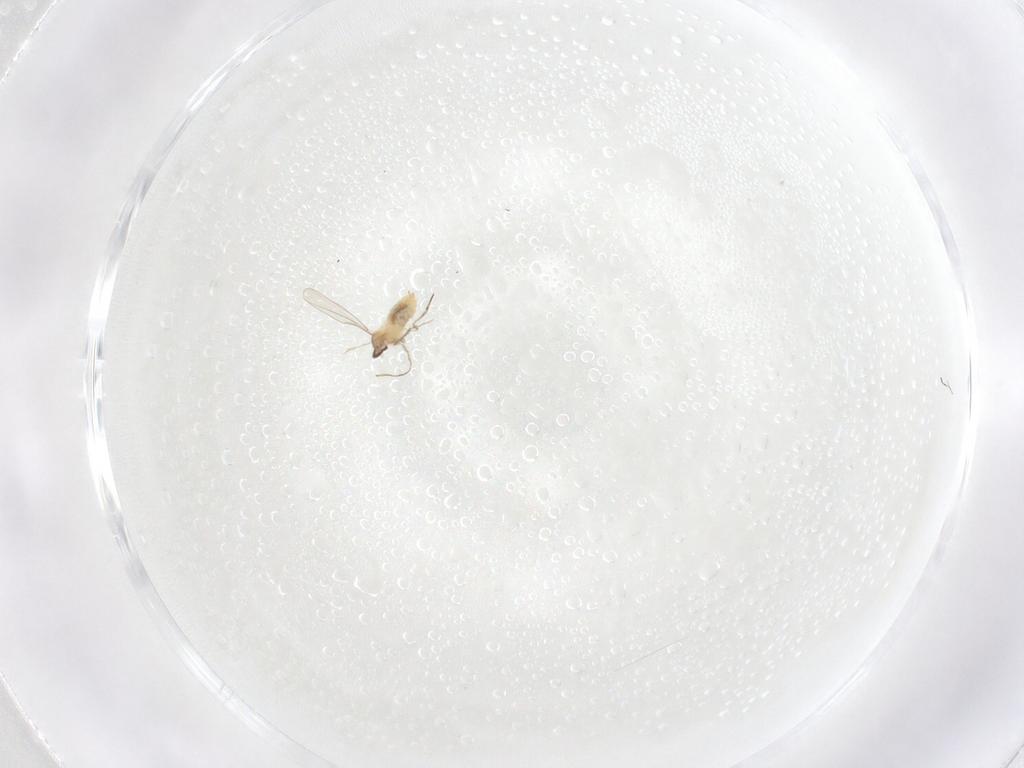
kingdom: Animalia
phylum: Arthropoda
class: Insecta
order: Diptera
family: Cecidomyiidae
